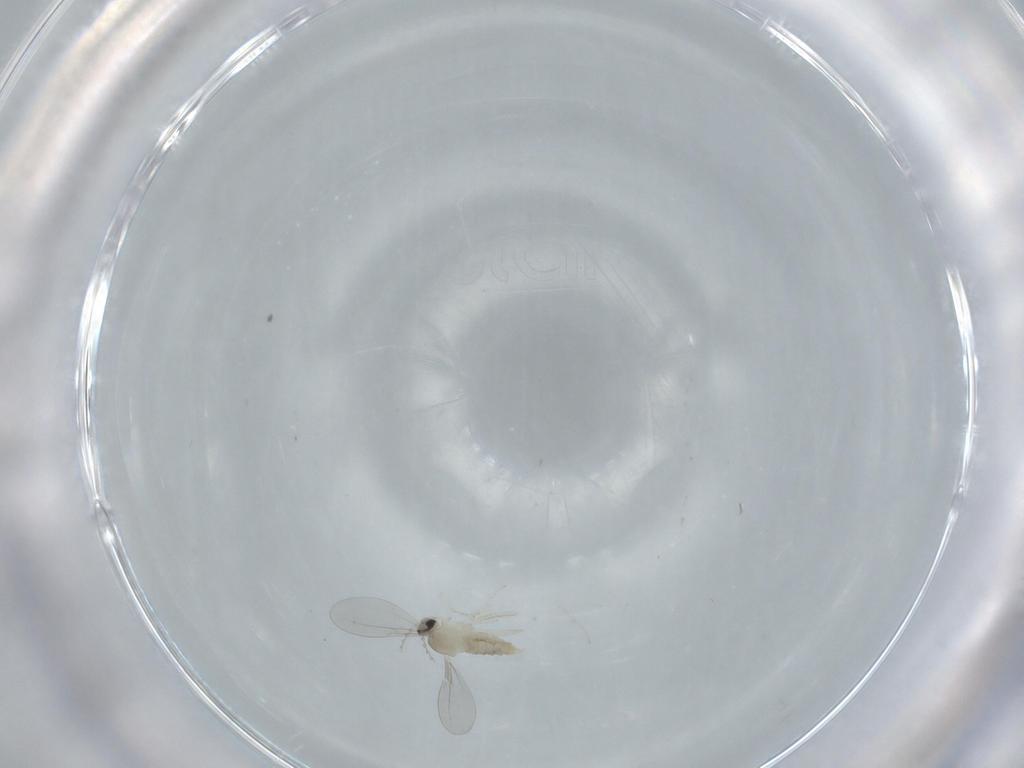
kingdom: Animalia
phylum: Arthropoda
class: Insecta
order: Diptera
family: Cecidomyiidae
